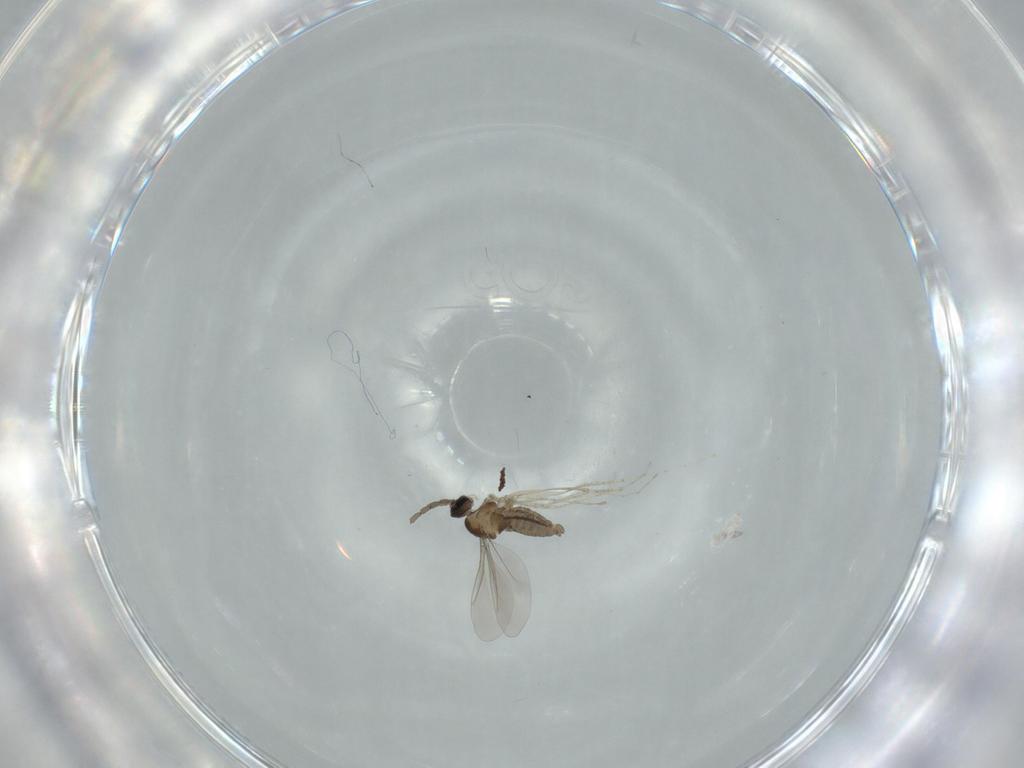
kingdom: Animalia
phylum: Arthropoda
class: Insecta
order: Diptera
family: Cecidomyiidae
